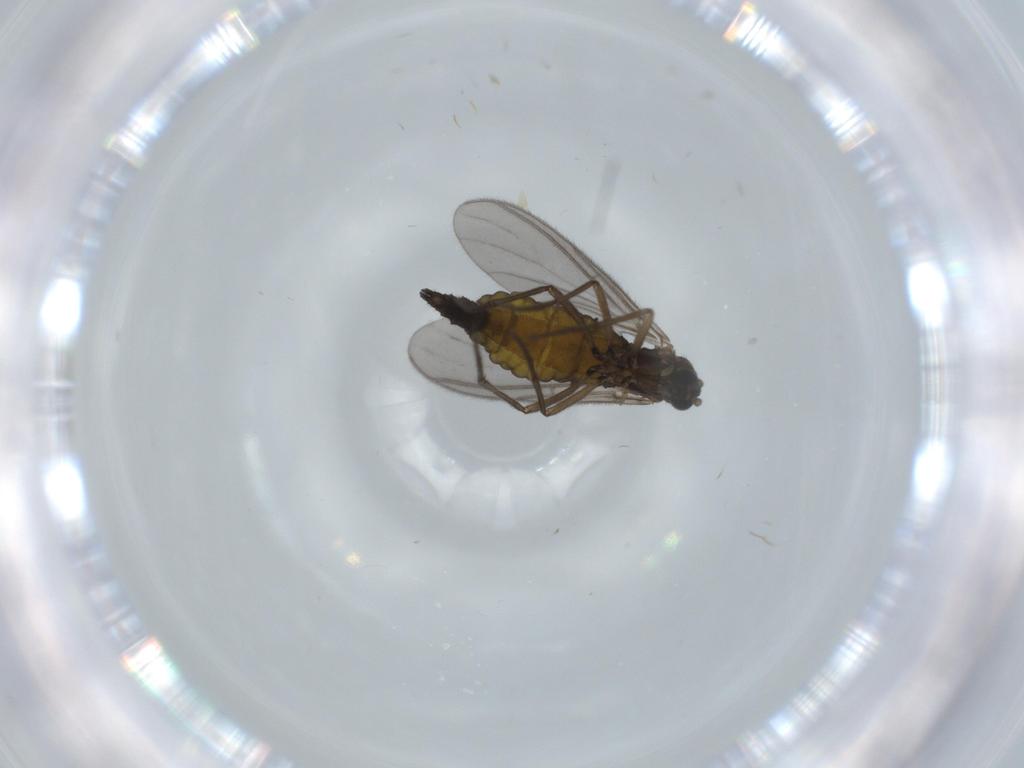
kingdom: Animalia
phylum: Arthropoda
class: Insecta
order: Diptera
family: Sciaridae
